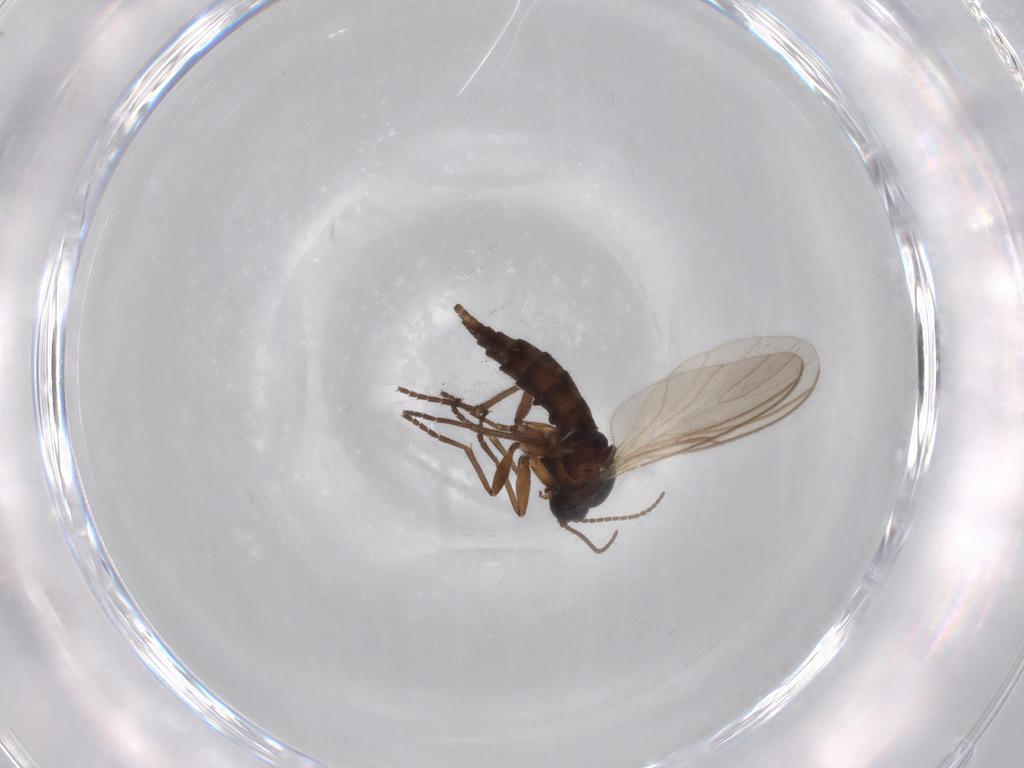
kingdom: Animalia
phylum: Arthropoda
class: Insecta
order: Diptera
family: Sciaridae
